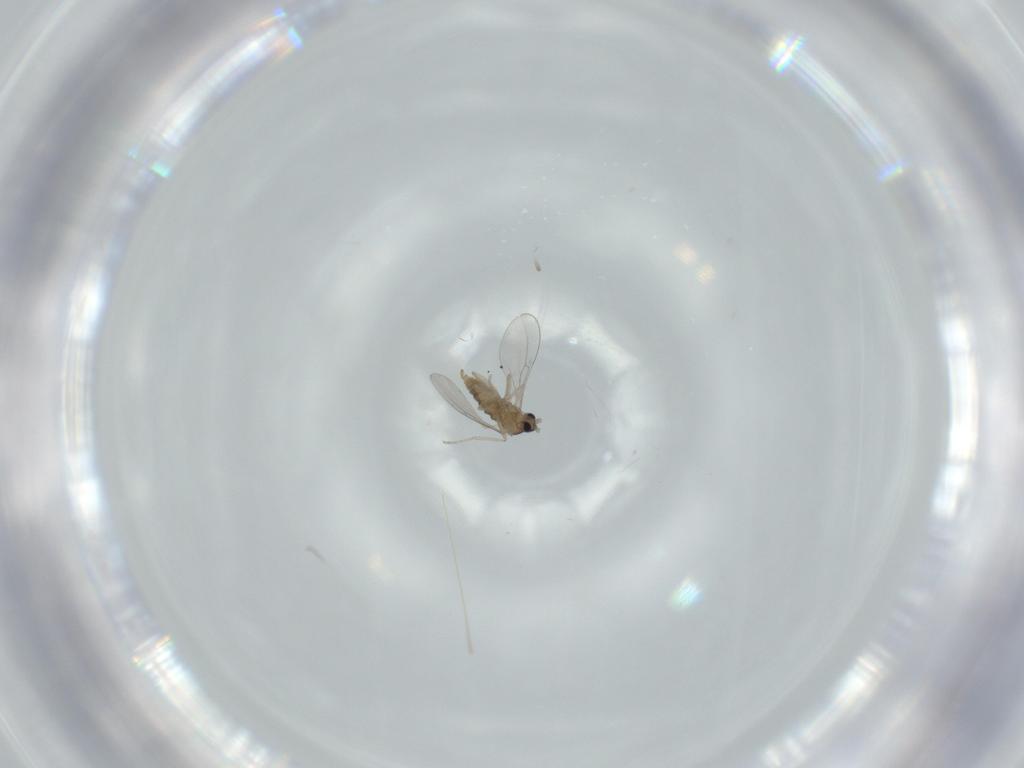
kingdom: Animalia
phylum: Arthropoda
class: Insecta
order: Diptera
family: Cecidomyiidae
